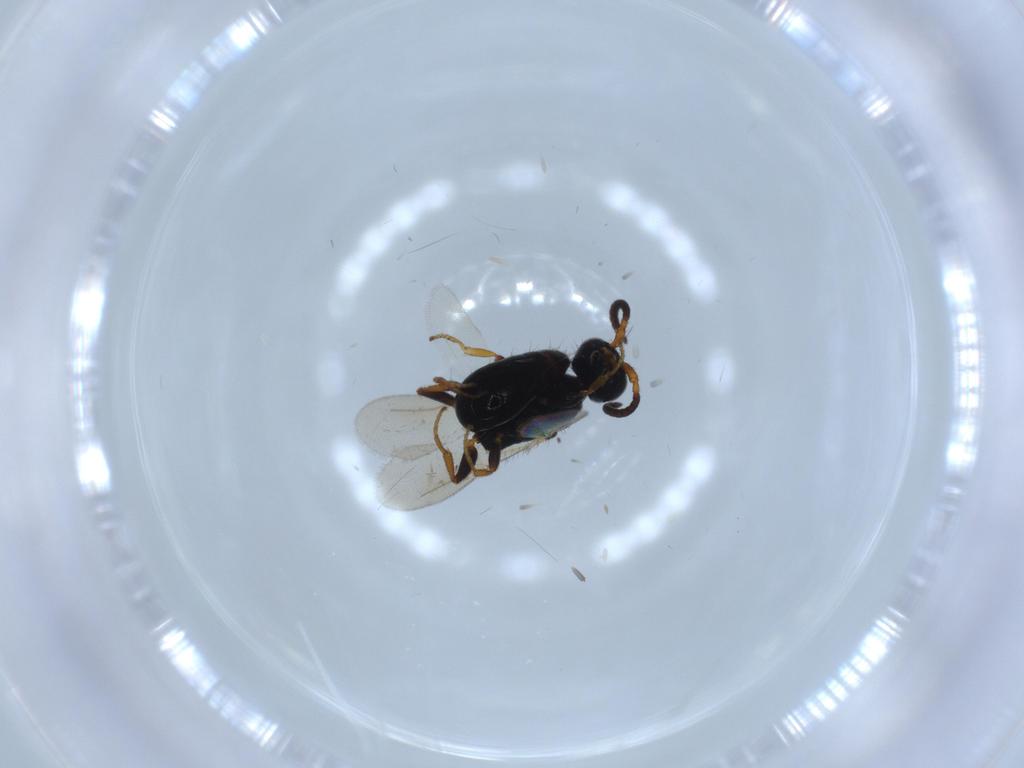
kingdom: Animalia
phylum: Arthropoda
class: Insecta
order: Hymenoptera
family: Bethylidae
